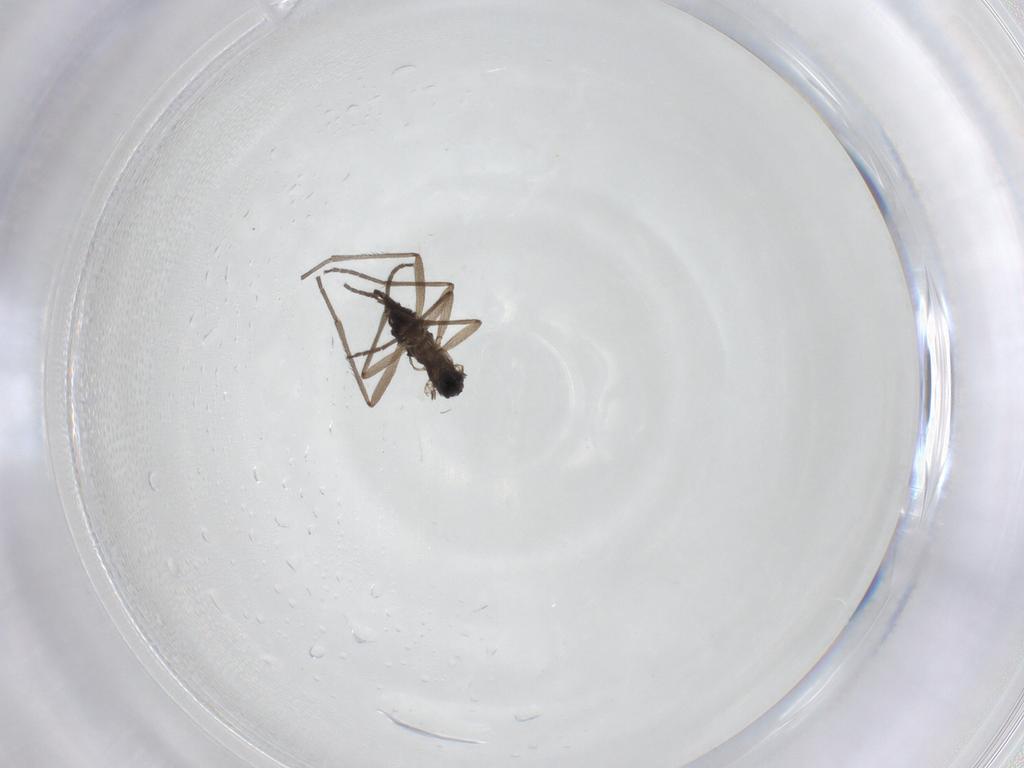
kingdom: Animalia
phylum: Arthropoda
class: Insecta
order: Diptera
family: Sciaridae
